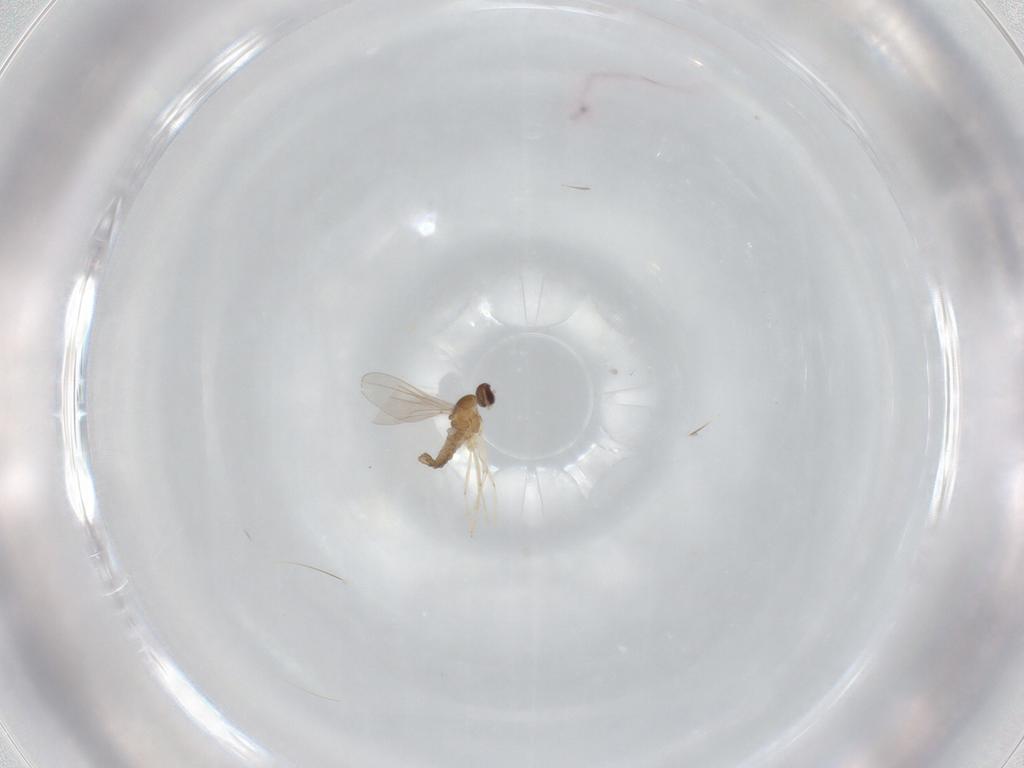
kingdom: Animalia
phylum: Arthropoda
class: Insecta
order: Diptera
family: Cecidomyiidae
